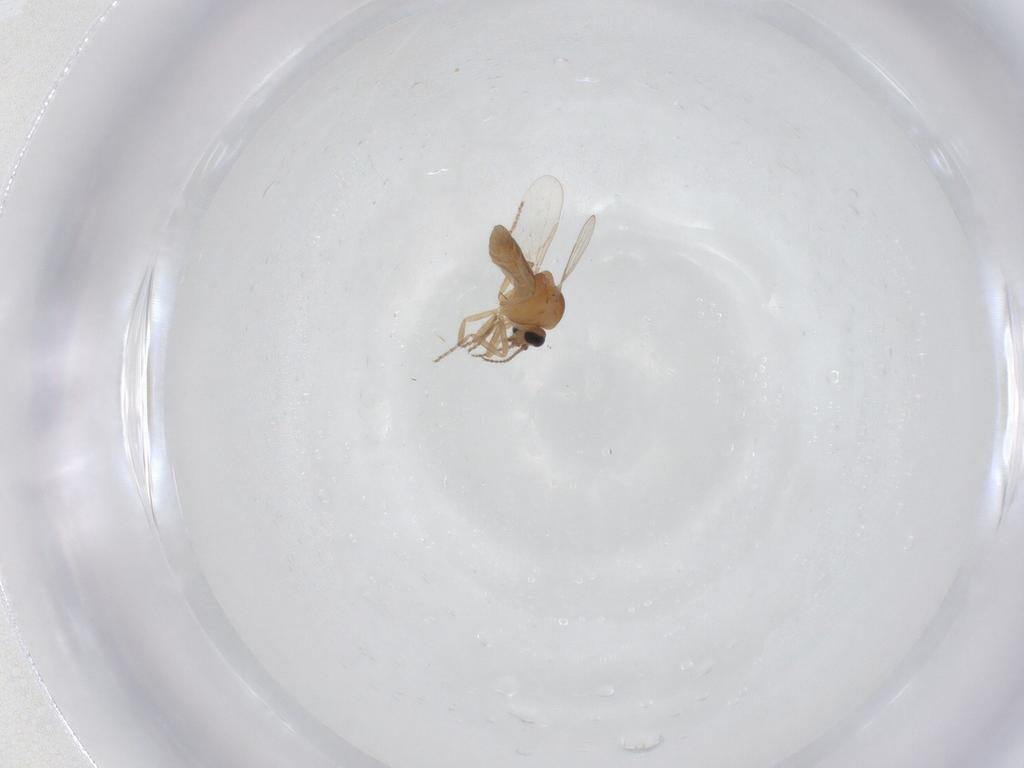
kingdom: Animalia
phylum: Arthropoda
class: Insecta
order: Diptera
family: Ceratopogonidae
